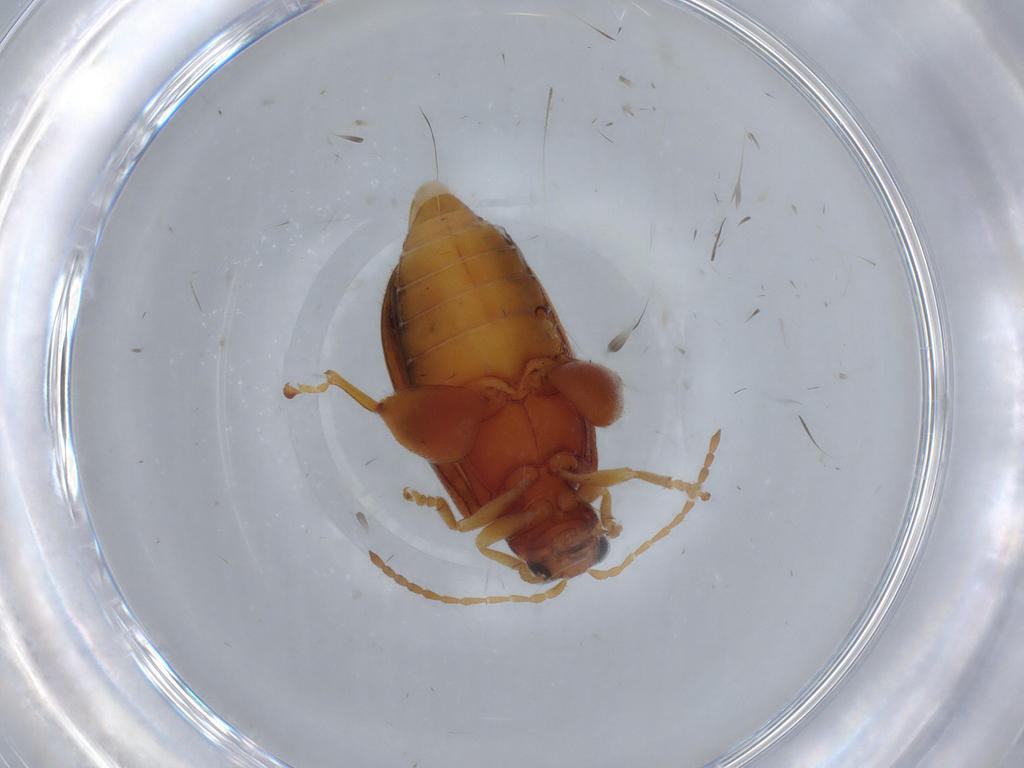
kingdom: Animalia
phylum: Arthropoda
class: Insecta
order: Coleoptera
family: Chrysomelidae
